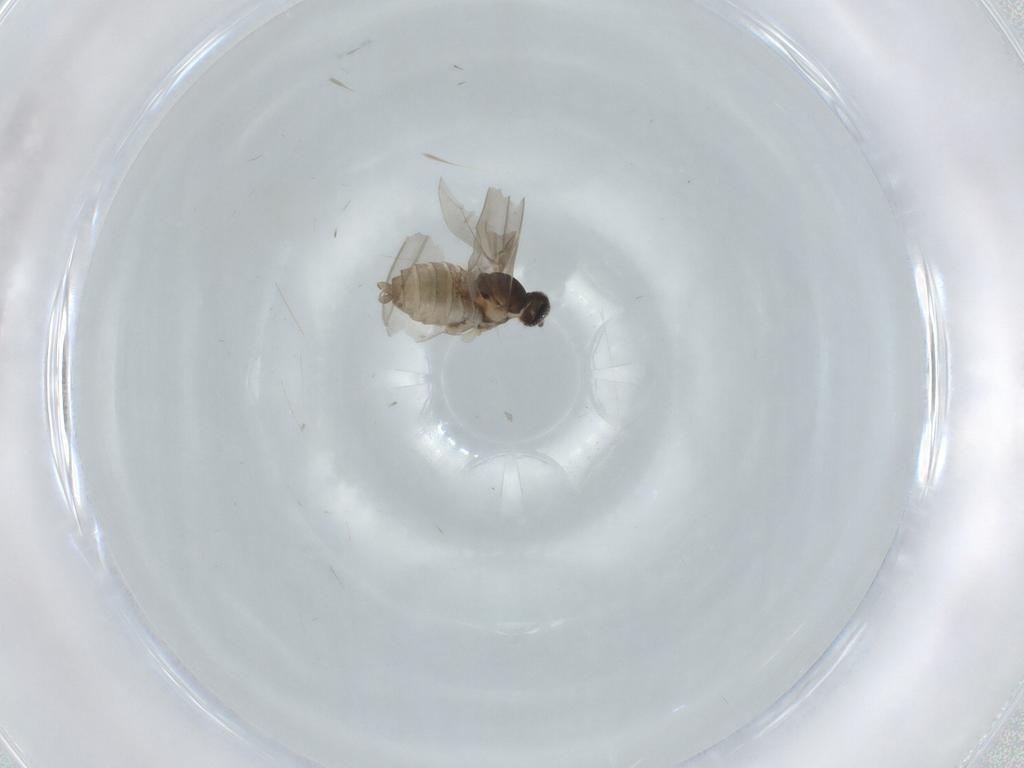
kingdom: Animalia
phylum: Arthropoda
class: Insecta
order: Diptera
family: Cecidomyiidae
